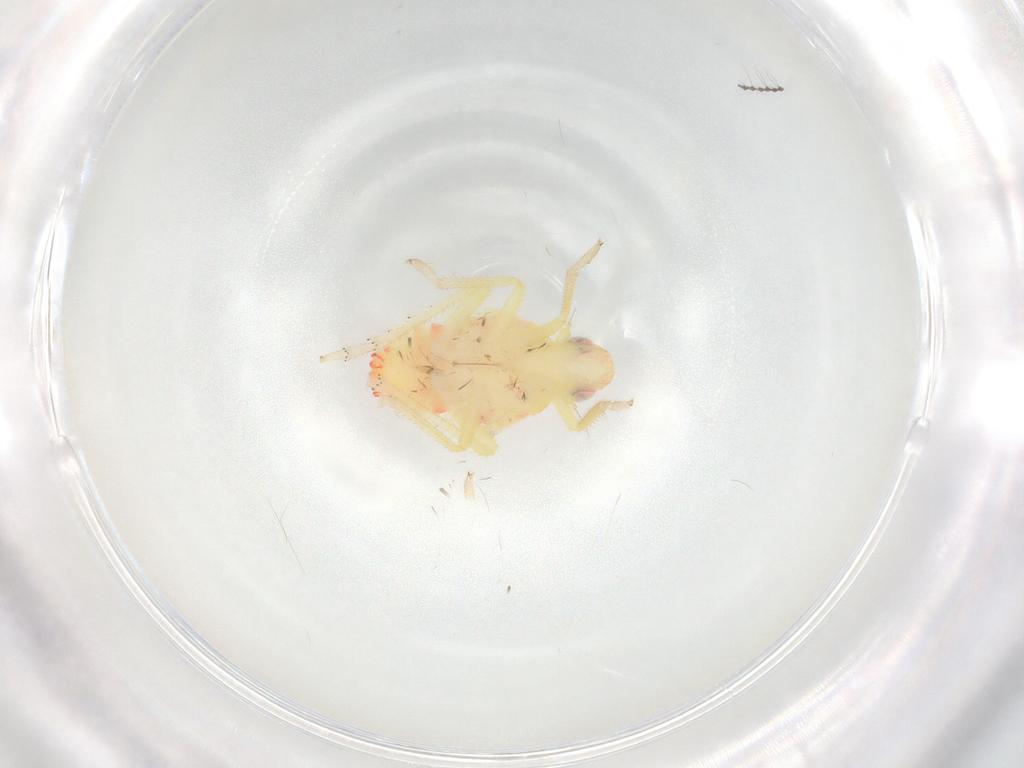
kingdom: Animalia
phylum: Arthropoda
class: Insecta
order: Hemiptera
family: Tropiduchidae
